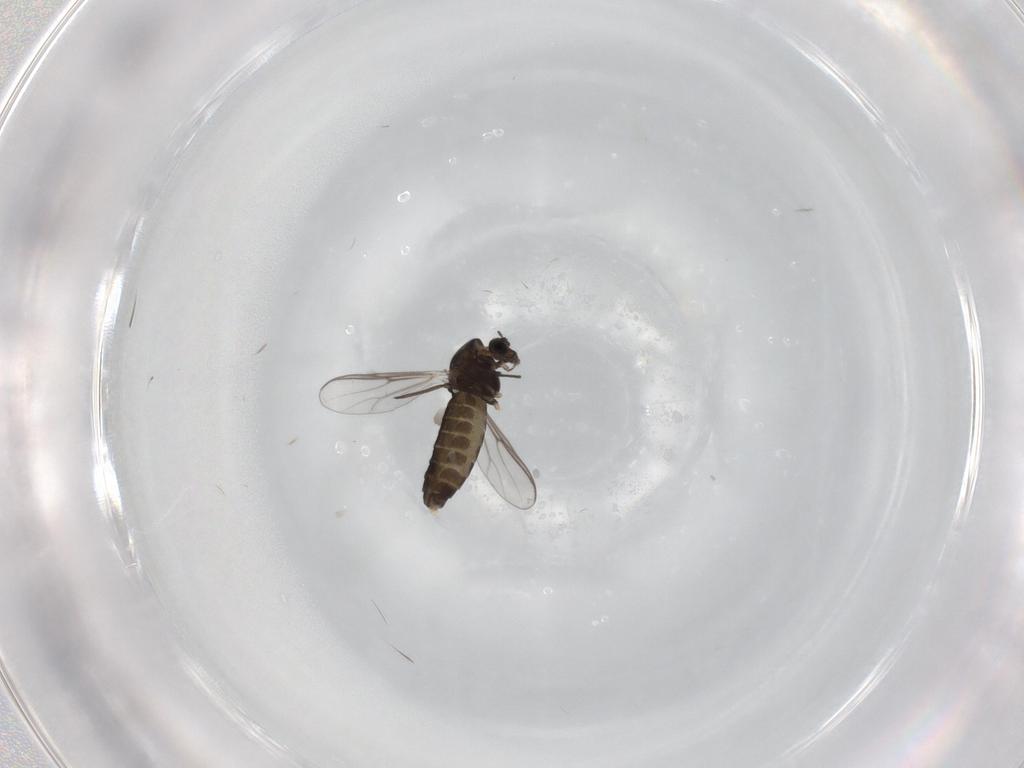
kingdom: Animalia
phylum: Arthropoda
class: Insecta
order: Diptera
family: Chironomidae
